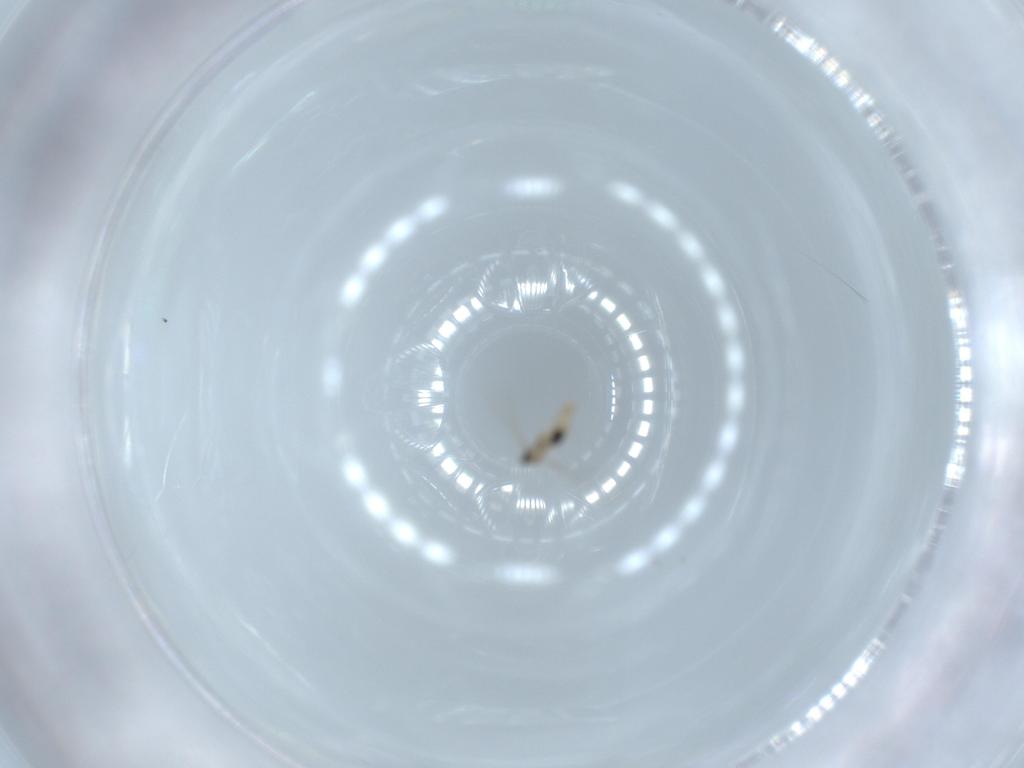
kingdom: Animalia
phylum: Arthropoda
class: Insecta
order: Diptera
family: Cecidomyiidae
